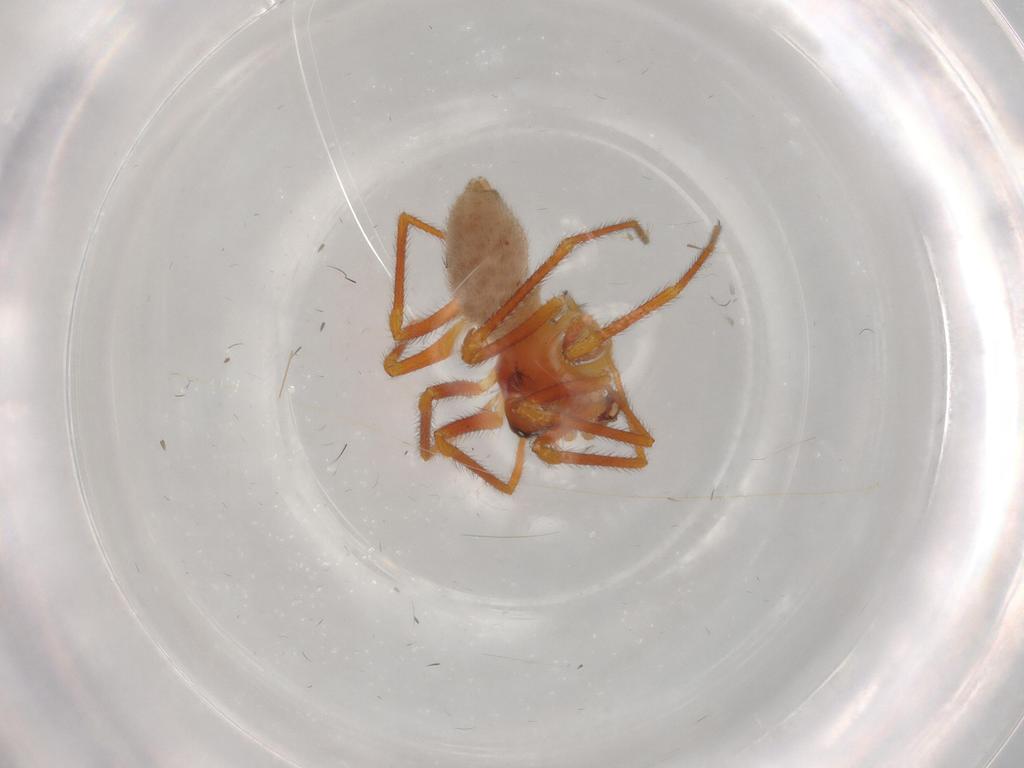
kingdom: Animalia
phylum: Arthropoda
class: Arachnida
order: Araneae
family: Linyphiidae
